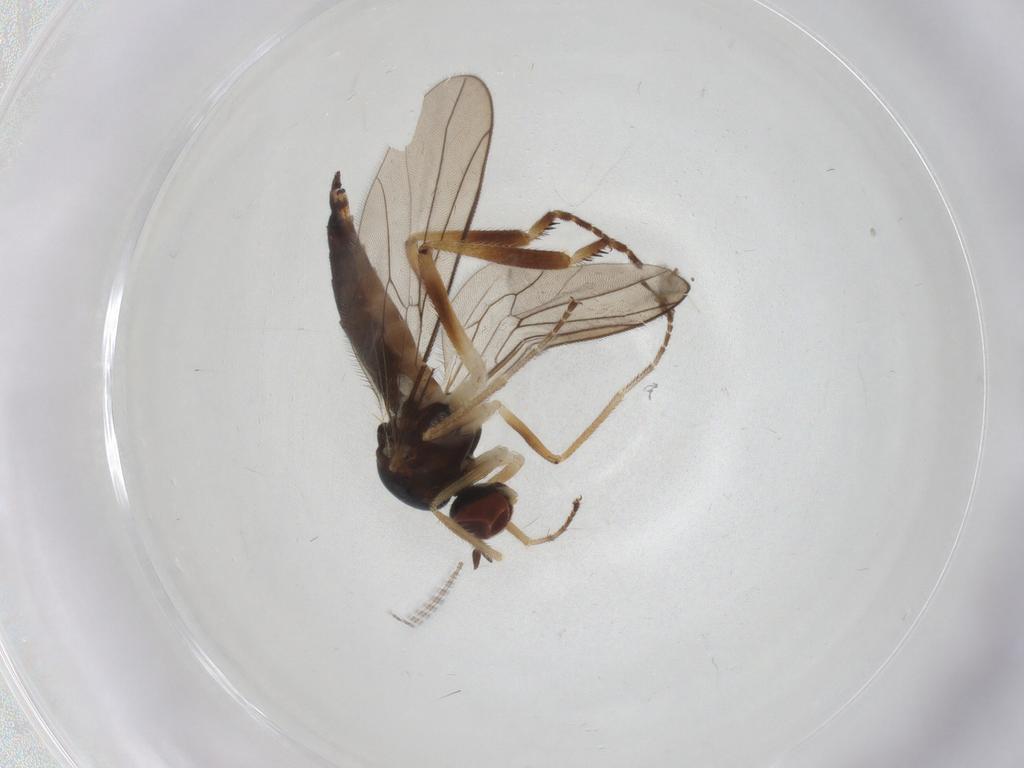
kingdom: Animalia
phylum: Arthropoda
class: Insecta
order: Diptera
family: Hybotidae
